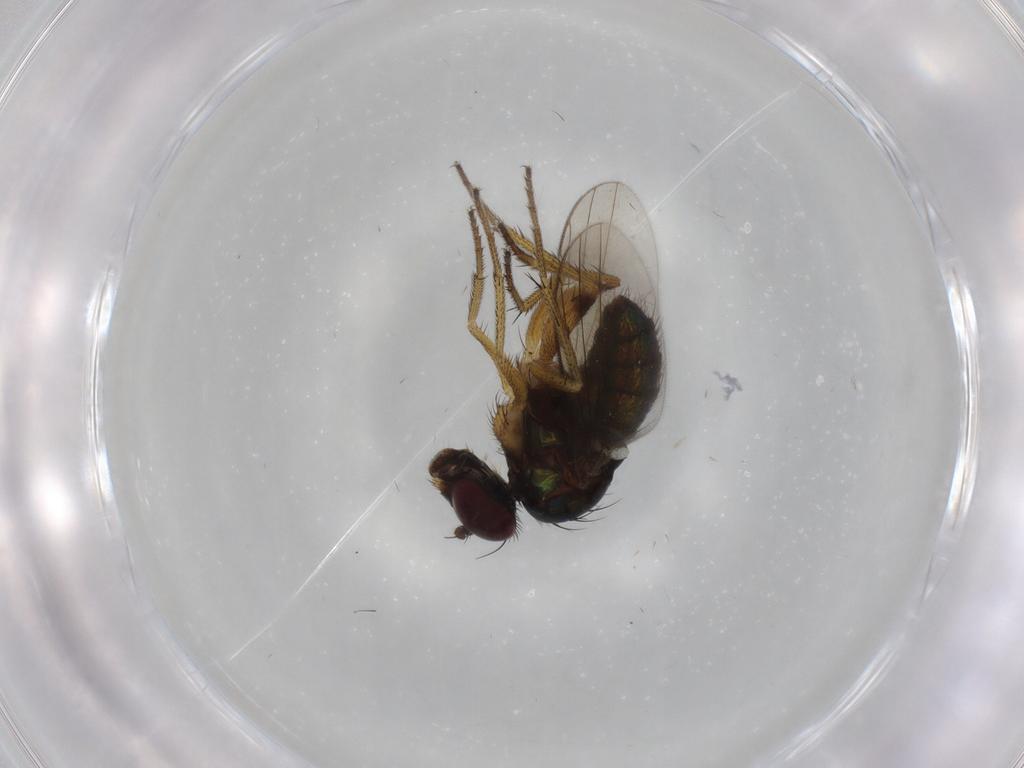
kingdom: Animalia
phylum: Arthropoda
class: Insecta
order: Diptera
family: Dolichopodidae
